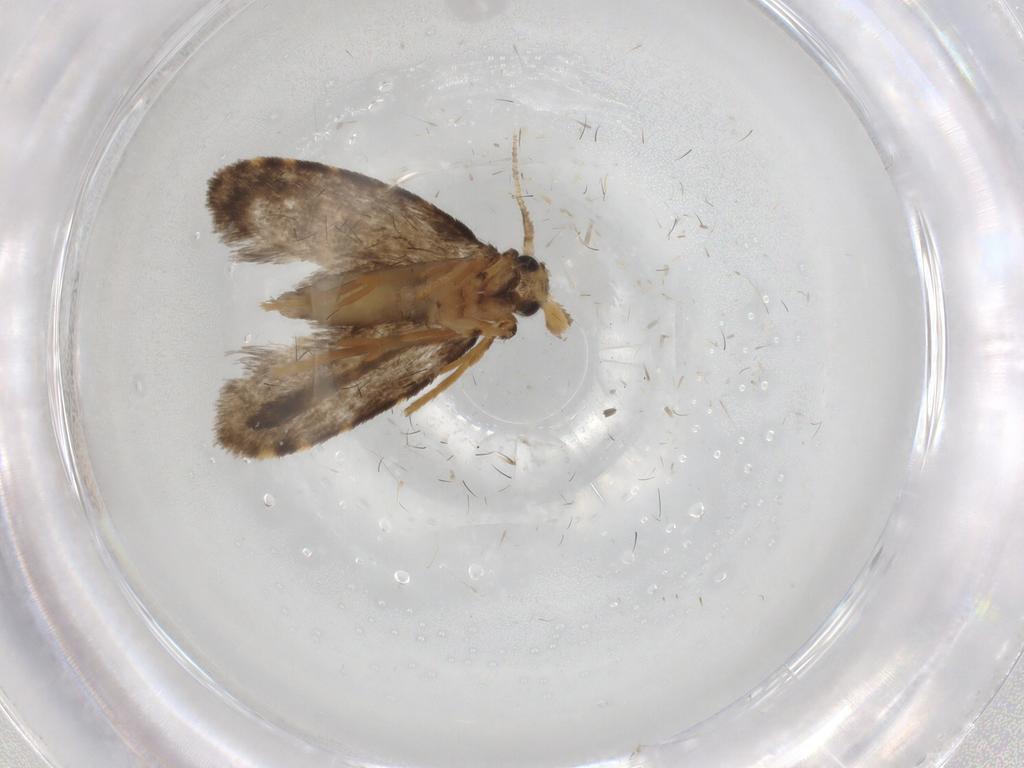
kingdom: Animalia
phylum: Arthropoda
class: Insecta
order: Lepidoptera
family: Psychidae
